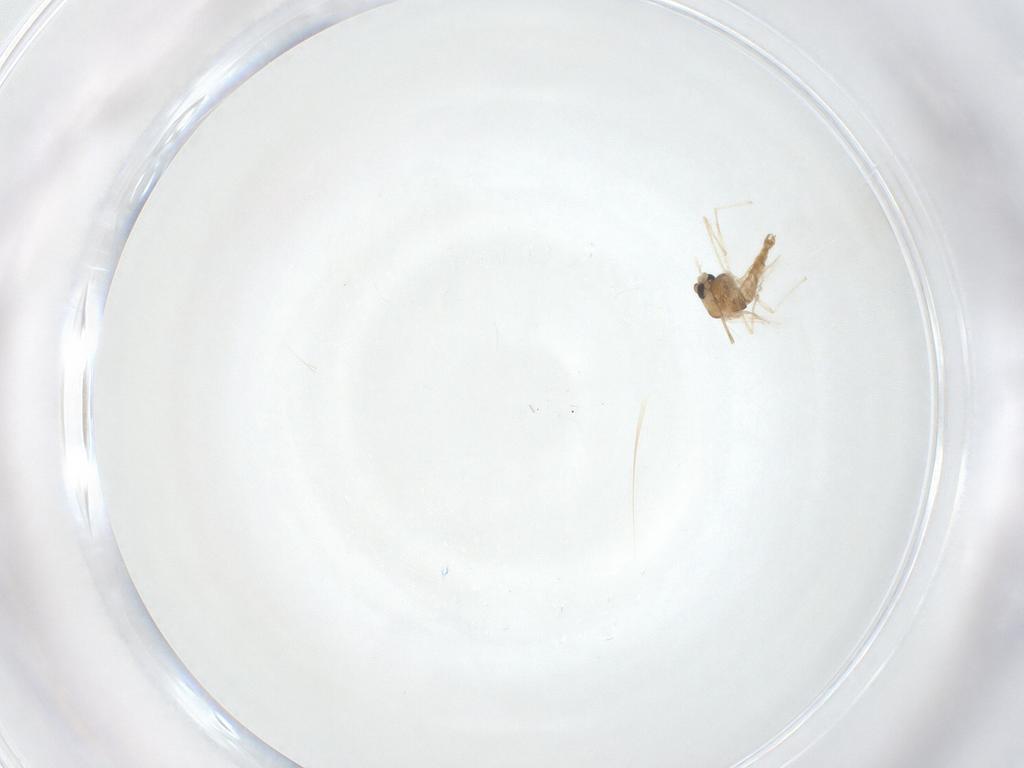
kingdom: Animalia
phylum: Arthropoda
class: Insecta
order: Diptera
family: Chironomidae
